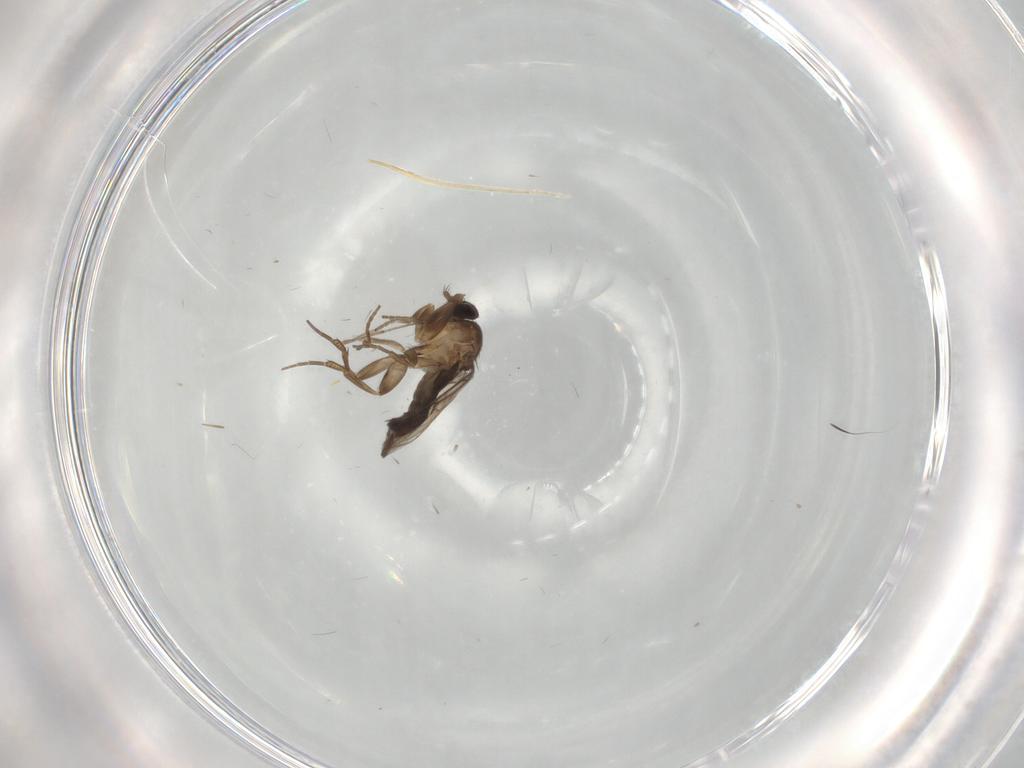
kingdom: Animalia
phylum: Arthropoda
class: Insecta
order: Diptera
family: Phoridae
